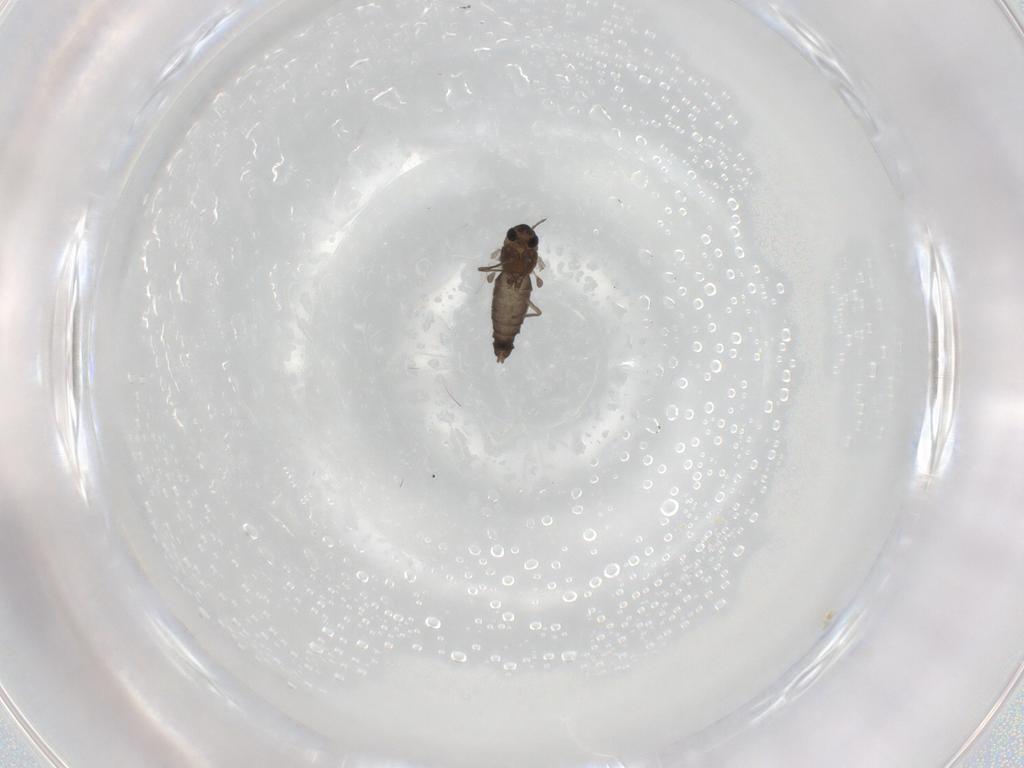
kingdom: Animalia
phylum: Arthropoda
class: Insecta
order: Diptera
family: Chironomidae
